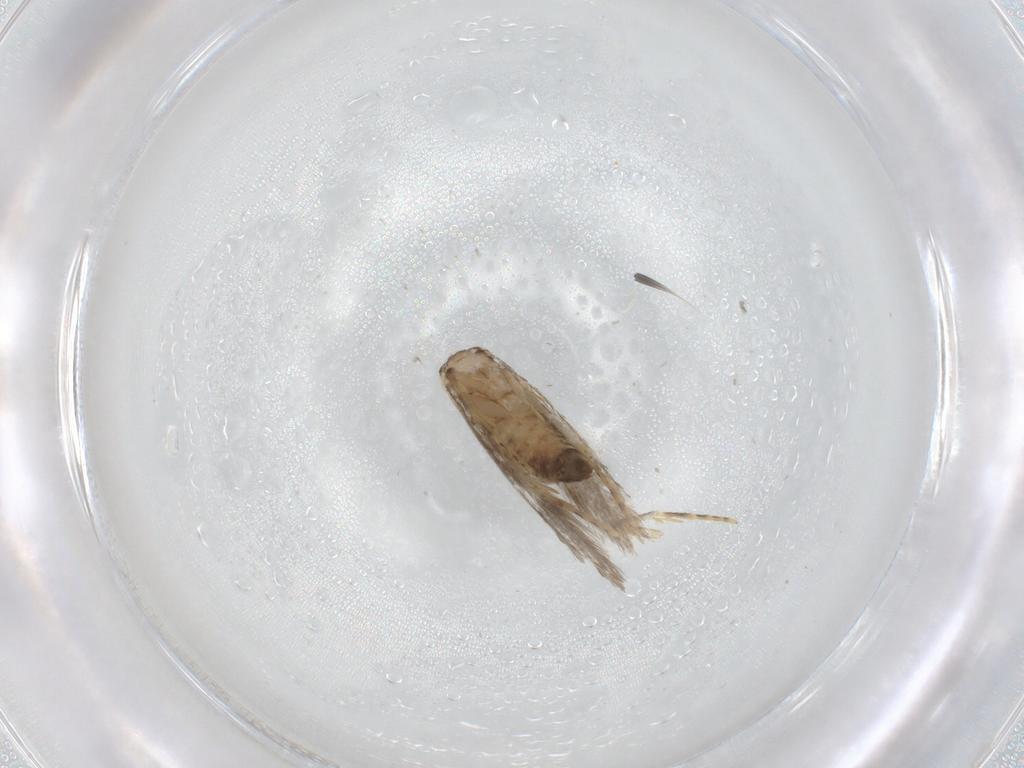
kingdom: Animalia
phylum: Arthropoda
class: Insecta
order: Lepidoptera
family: Tineidae
